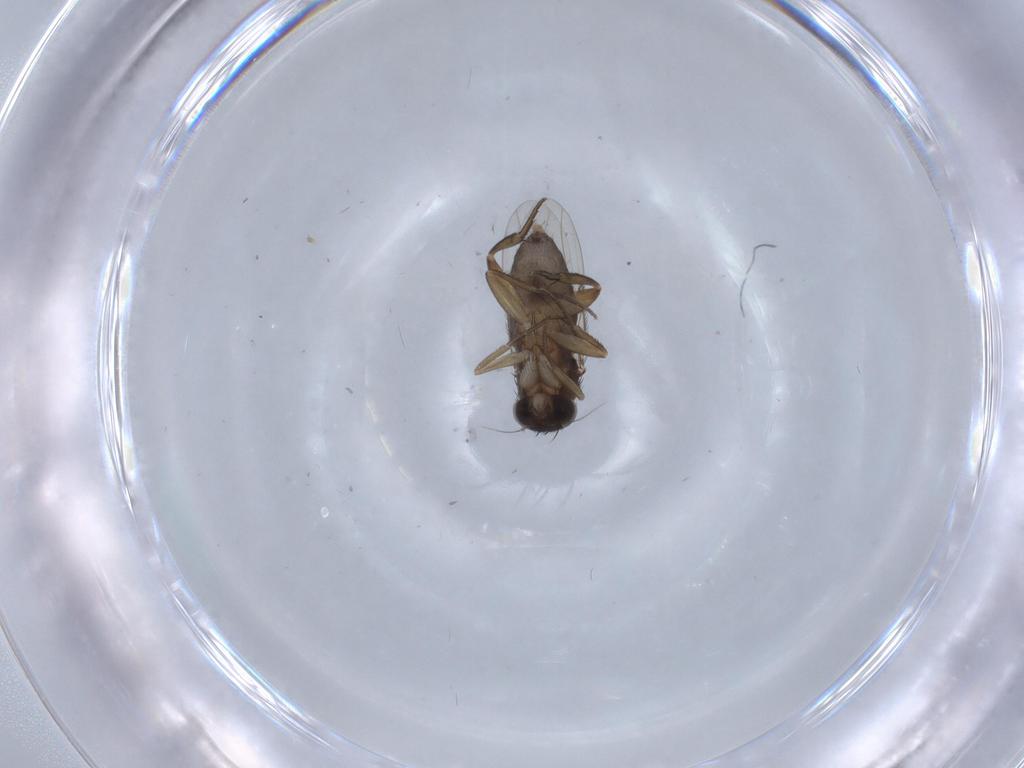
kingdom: Animalia
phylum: Arthropoda
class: Insecta
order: Diptera
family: Phoridae
